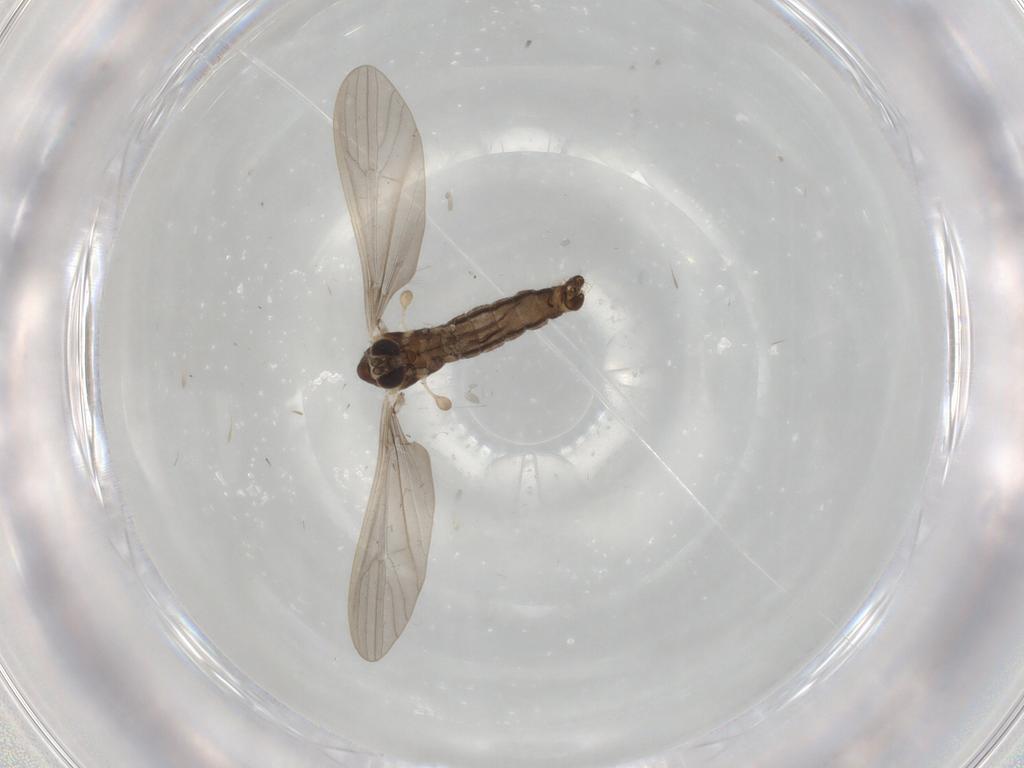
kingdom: Animalia
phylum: Arthropoda
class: Insecta
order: Diptera
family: Limoniidae
